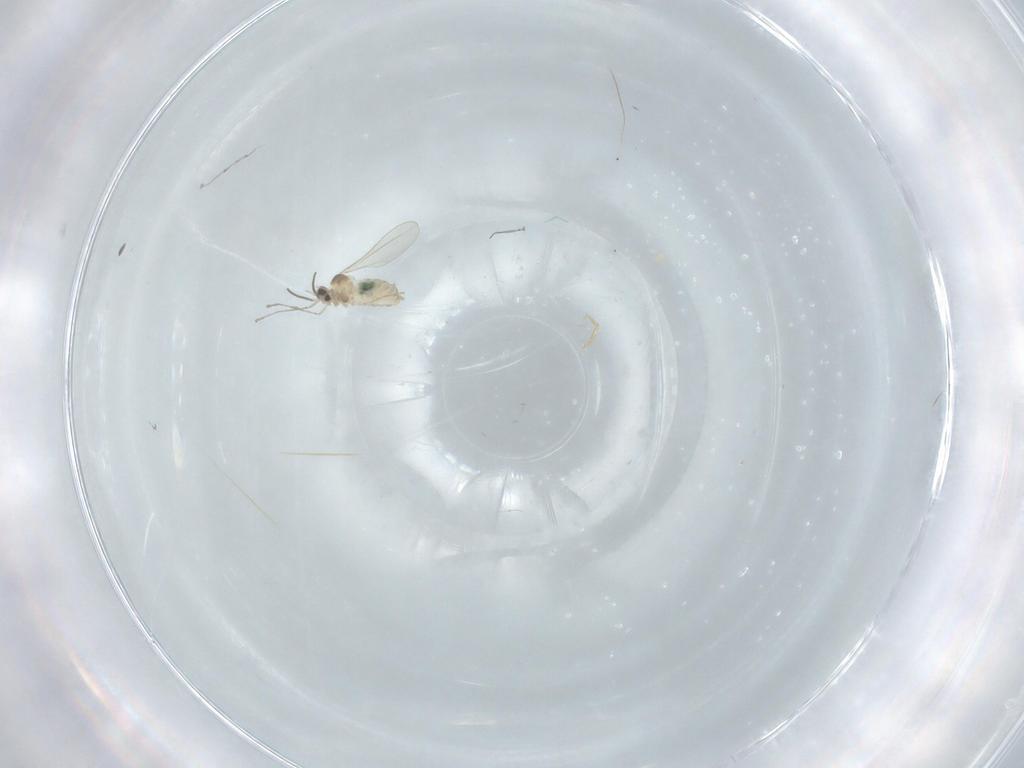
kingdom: Animalia
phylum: Arthropoda
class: Insecta
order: Diptera
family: Cecidomyiidae
